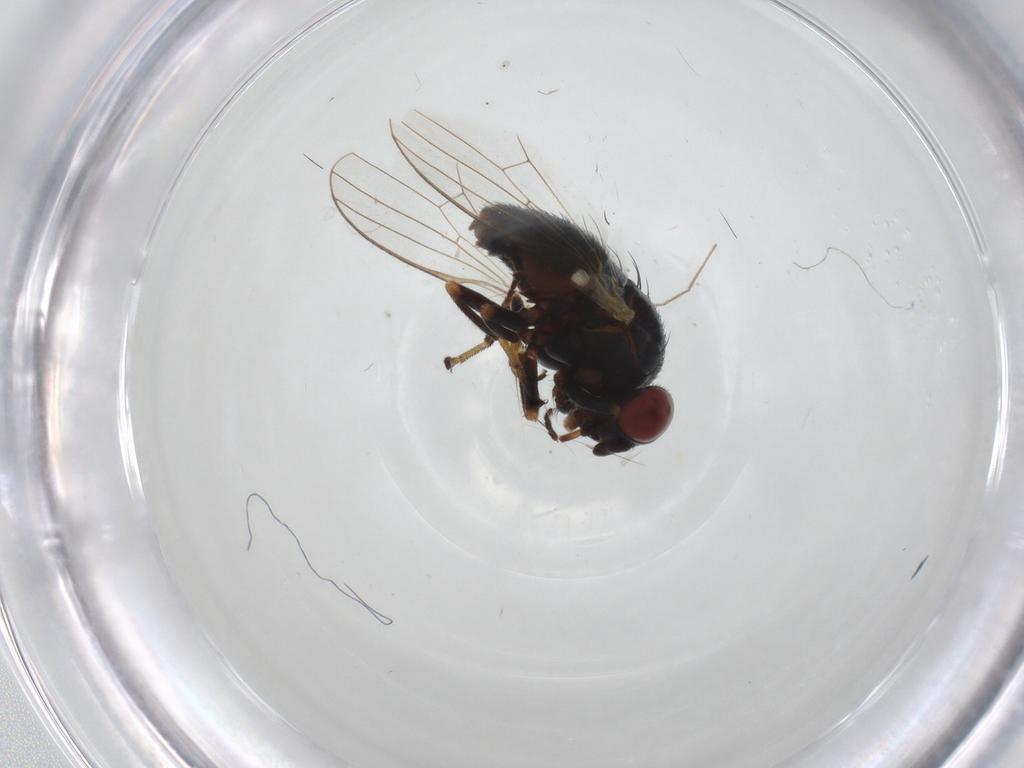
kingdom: Animalia
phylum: Arthropoda
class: Insecta
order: Diptera
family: Chamaemyiidae
